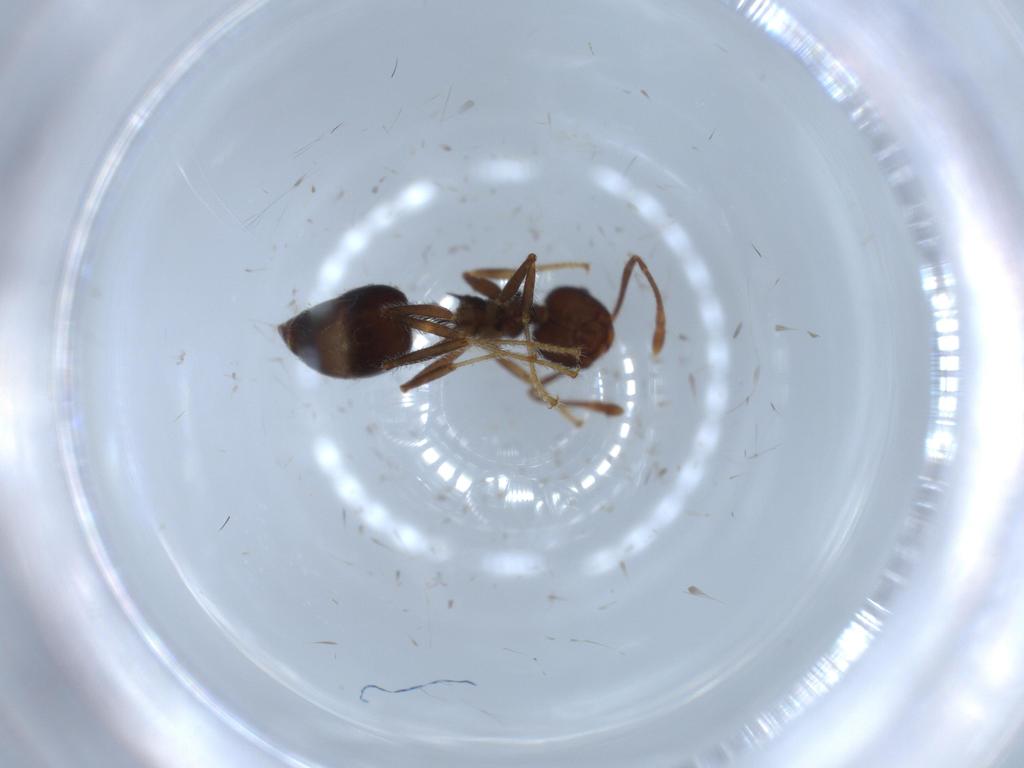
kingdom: Animalia
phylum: Arthropoda
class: Insecta
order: Hymenoptera
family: Formicidae
